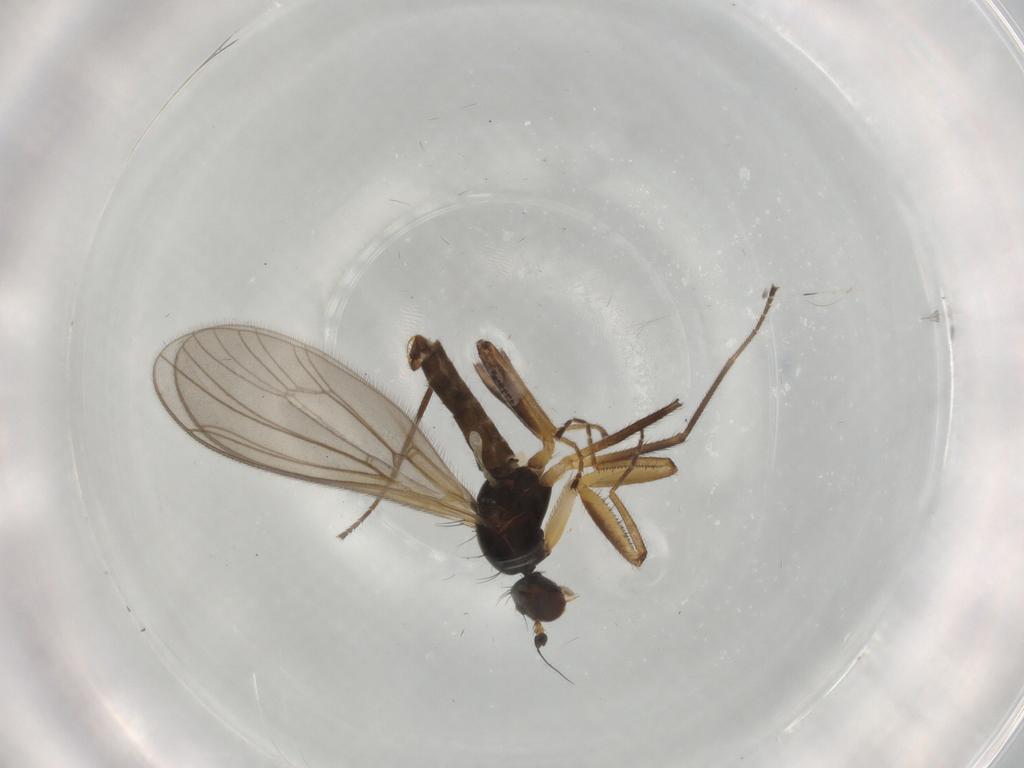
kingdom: Animalia
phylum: Arthropoda
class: Insecta
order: Diptera
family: Empididae
